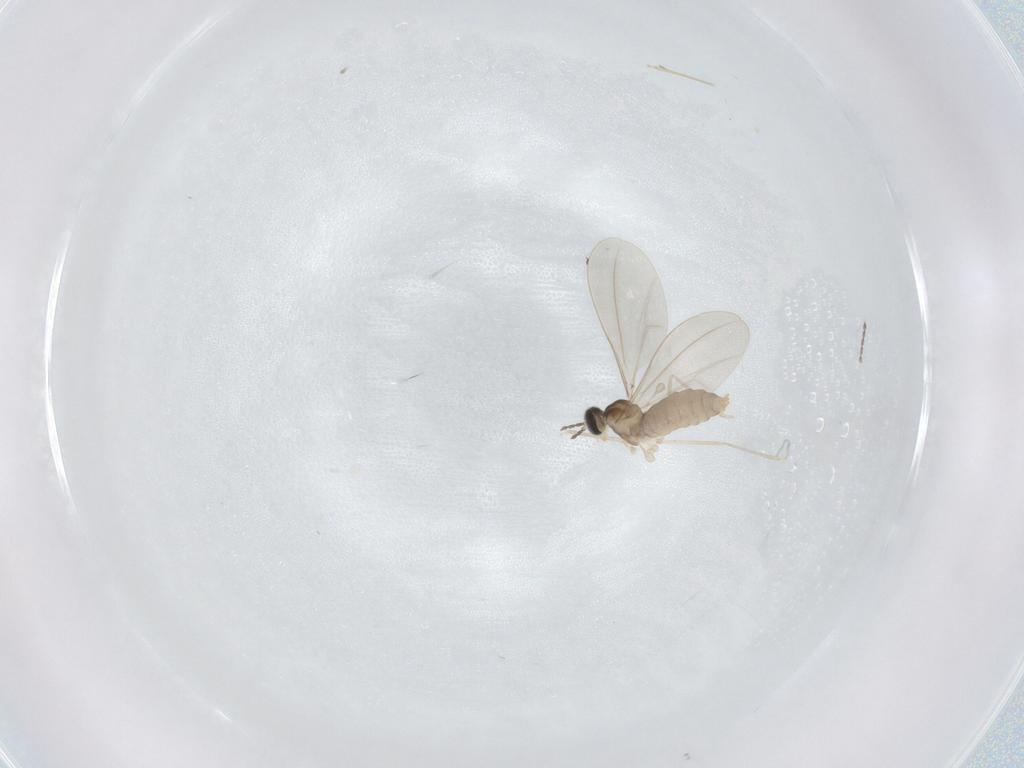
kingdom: Animalia
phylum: Arthropoda
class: Insecta
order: Diptera
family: Cecidomyiidae
